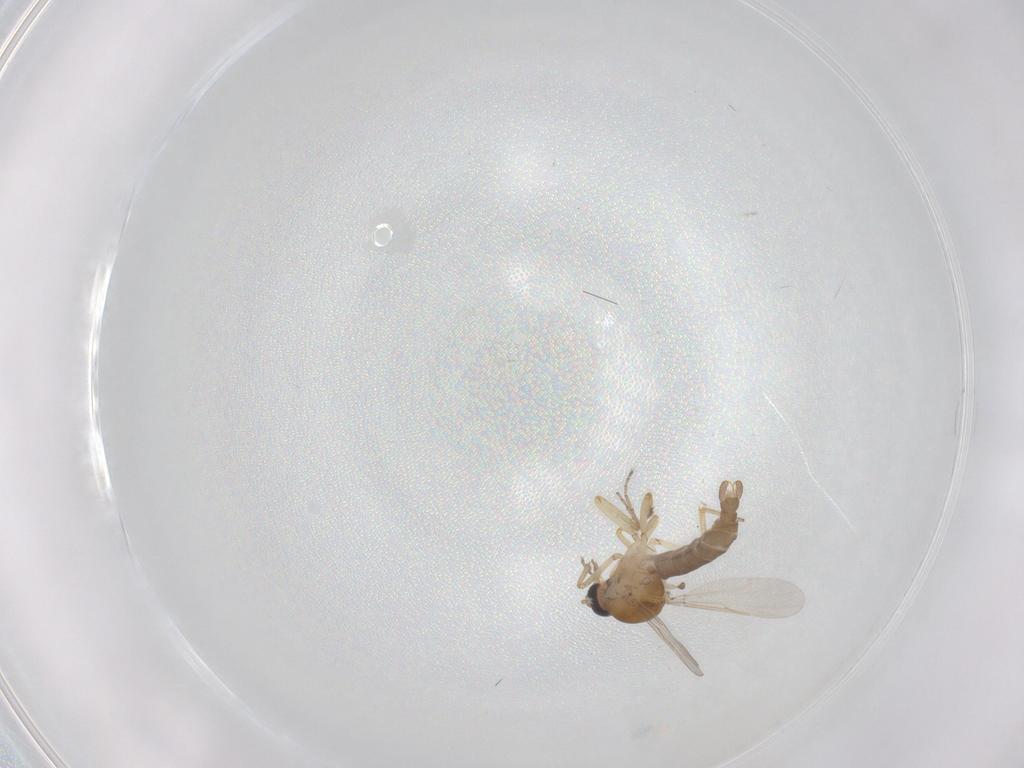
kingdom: Animalia
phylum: Arthropoda
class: Insecta
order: Diptera
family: Ceratopogonidae
